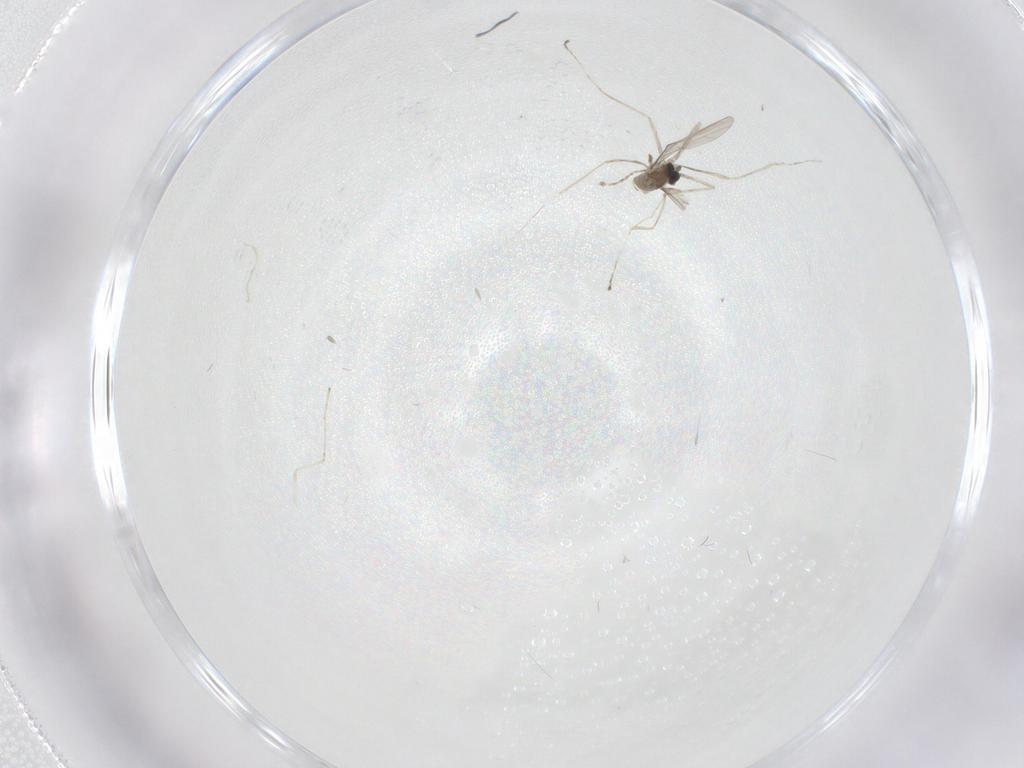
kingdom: Animalia
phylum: Arthropoda
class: Insecta
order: Diptera
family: Cecidomyiidae
